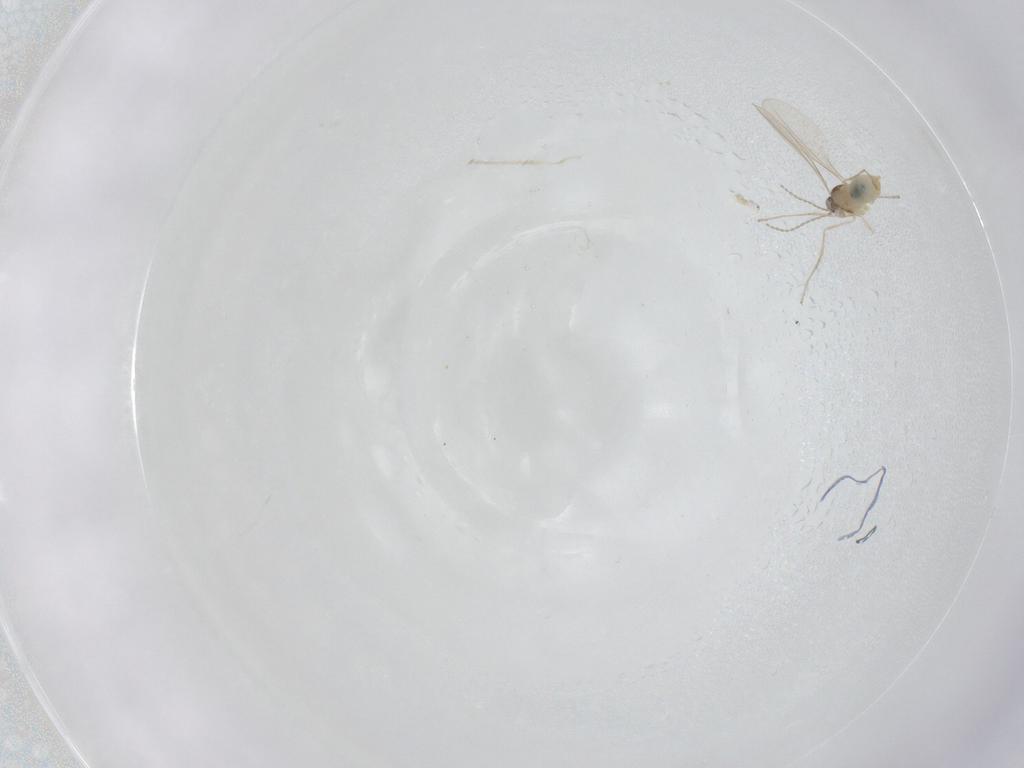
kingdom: Animalia
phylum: Arthropoda
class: Insecta
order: Diptera
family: Cecidomyiidae
